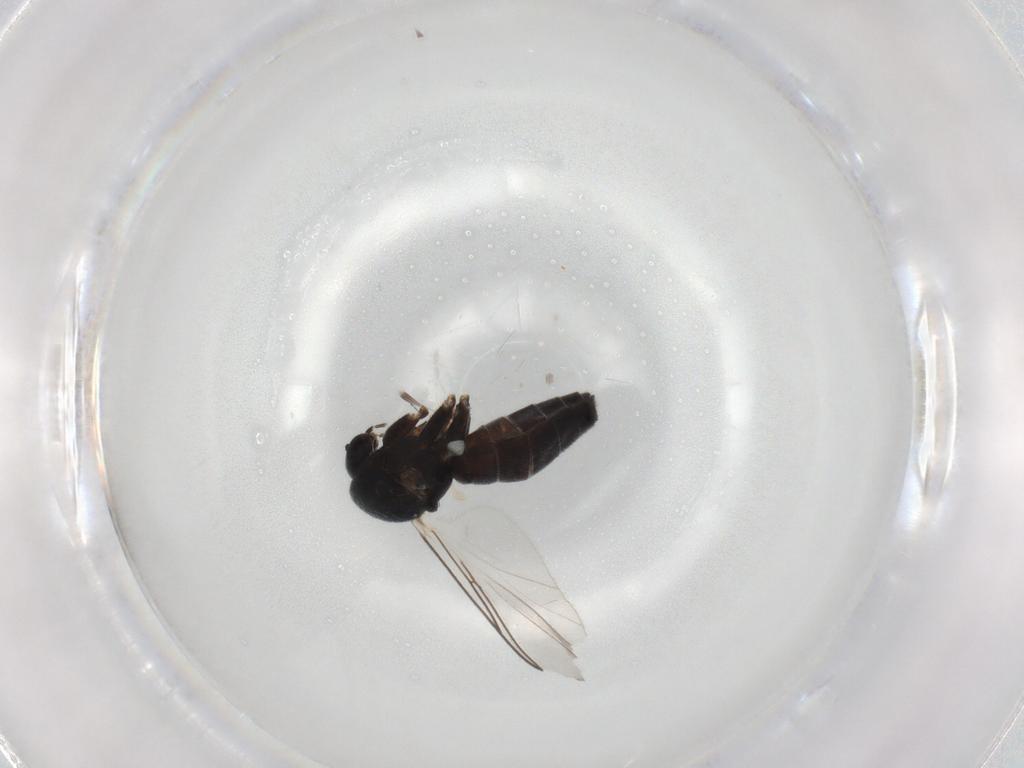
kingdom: Animalia
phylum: Arthropoda
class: Insecta
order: Diptera
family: Mycetophilidae
